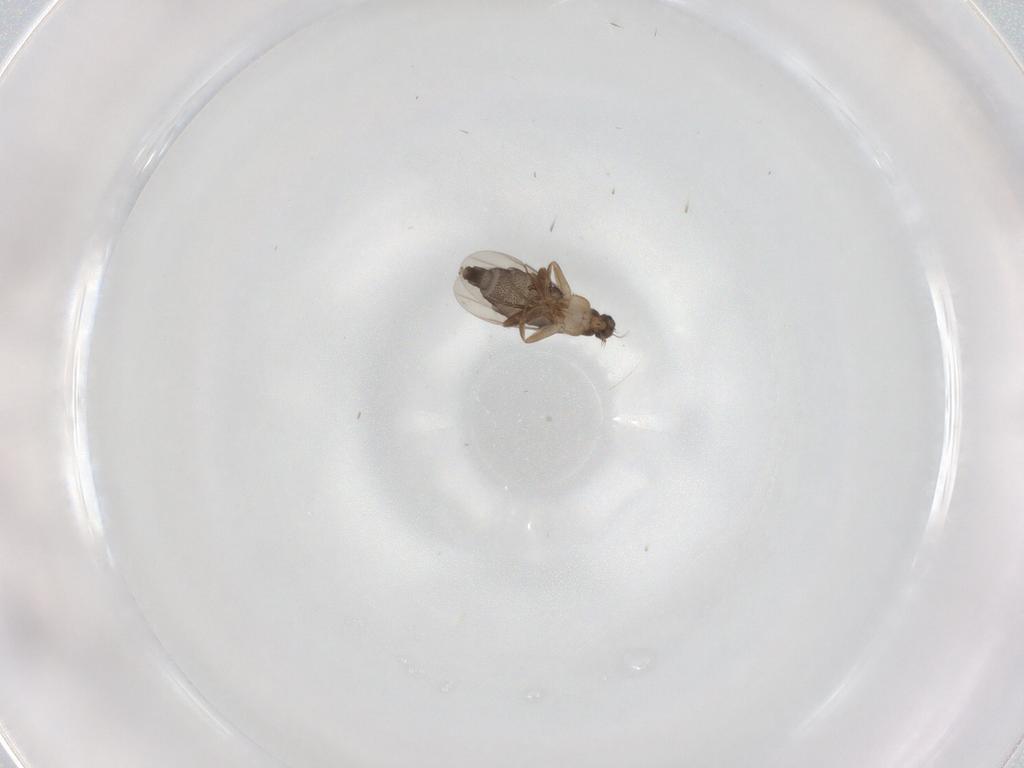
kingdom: Animalia
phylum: Arthropoda
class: Insecta
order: Diptera
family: Phoridae
